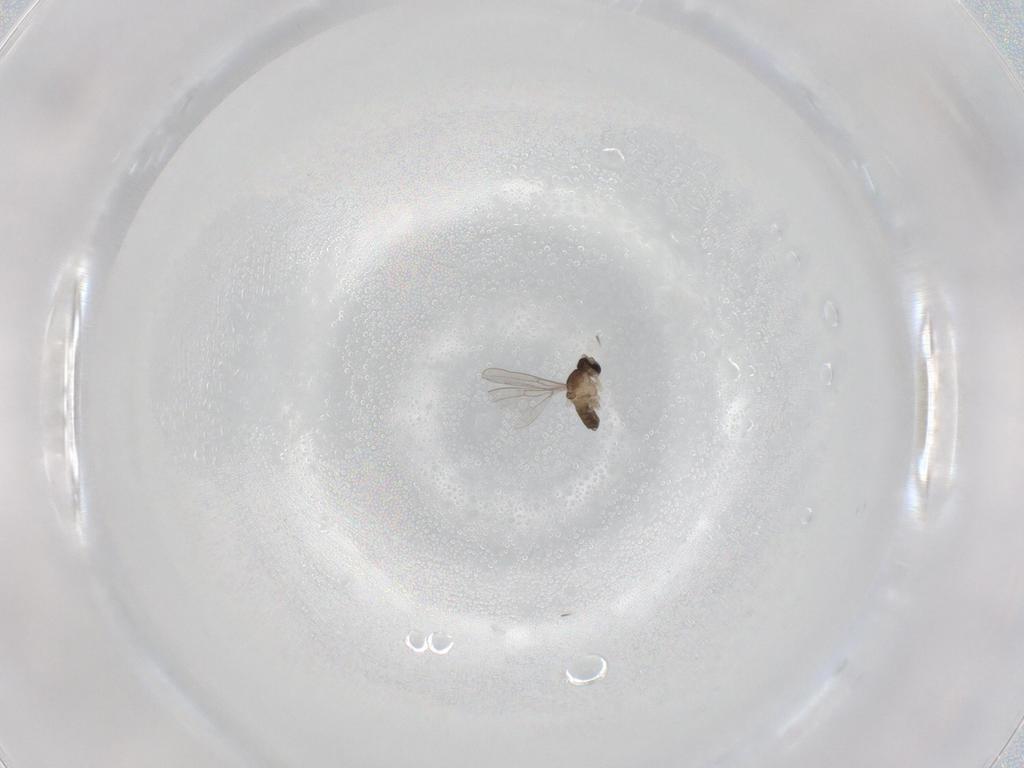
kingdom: Animalia
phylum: Arthropoda
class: Insecta
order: Diptera
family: Cecidomyiidae
